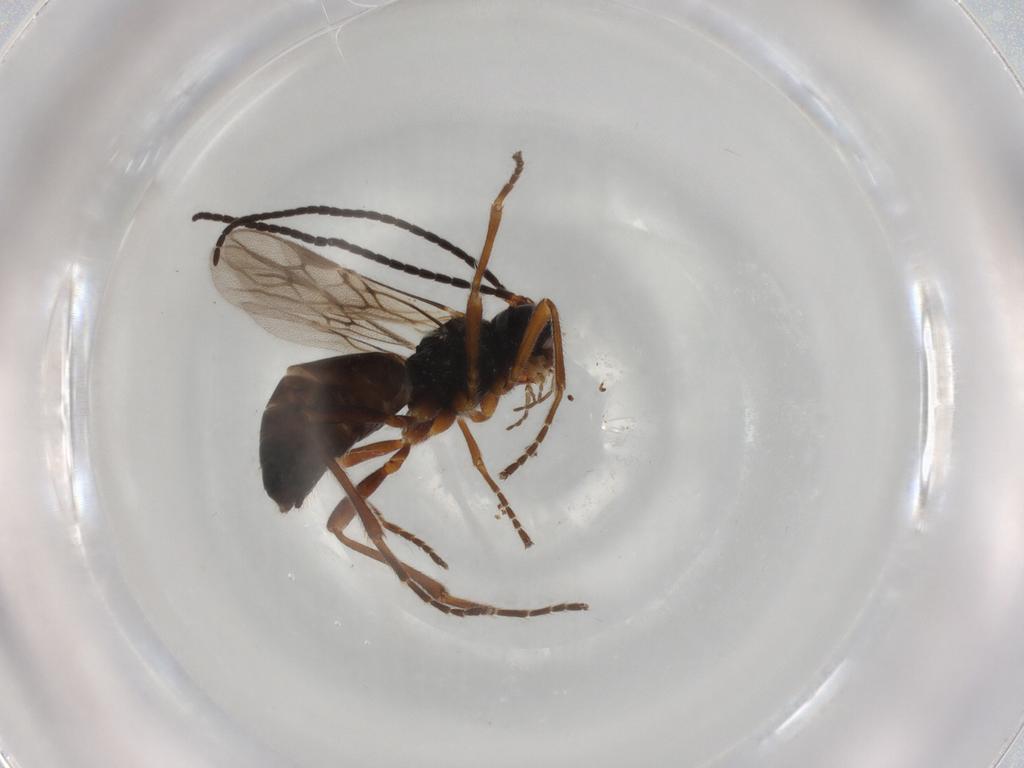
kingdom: Animalia
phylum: Arthropoda
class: Insecta
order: Hymenoptera
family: Braconidae
